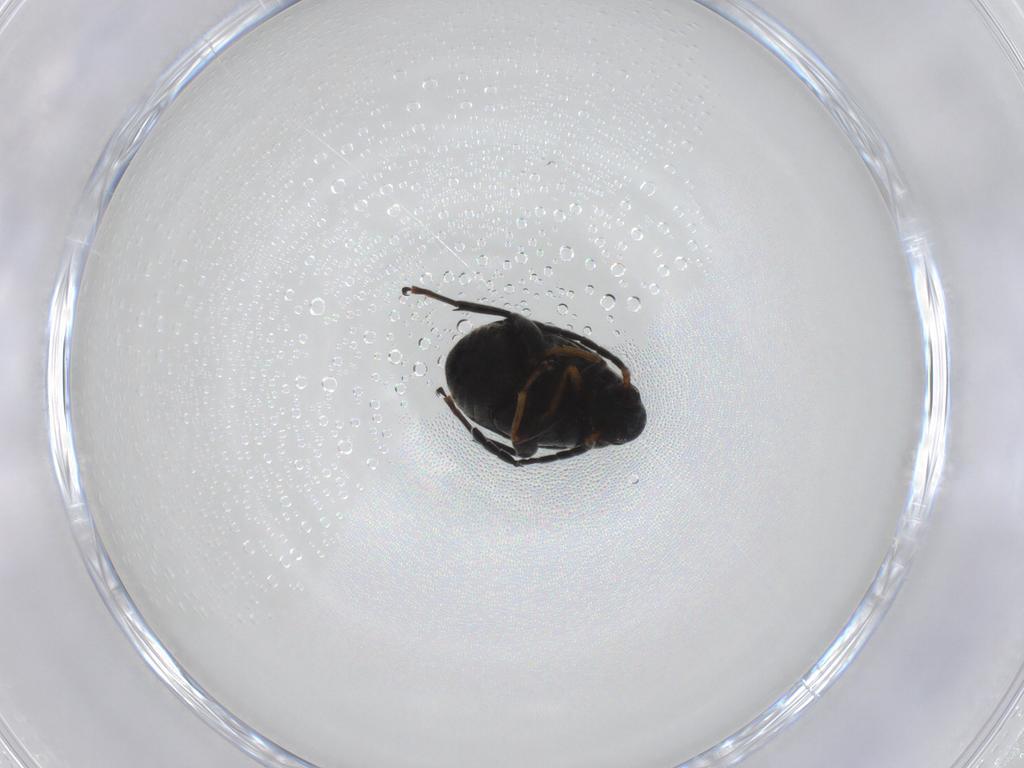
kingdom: Animalia
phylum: Arthropoda
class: Insecta
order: Coleoptera
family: Chrysomelidae
